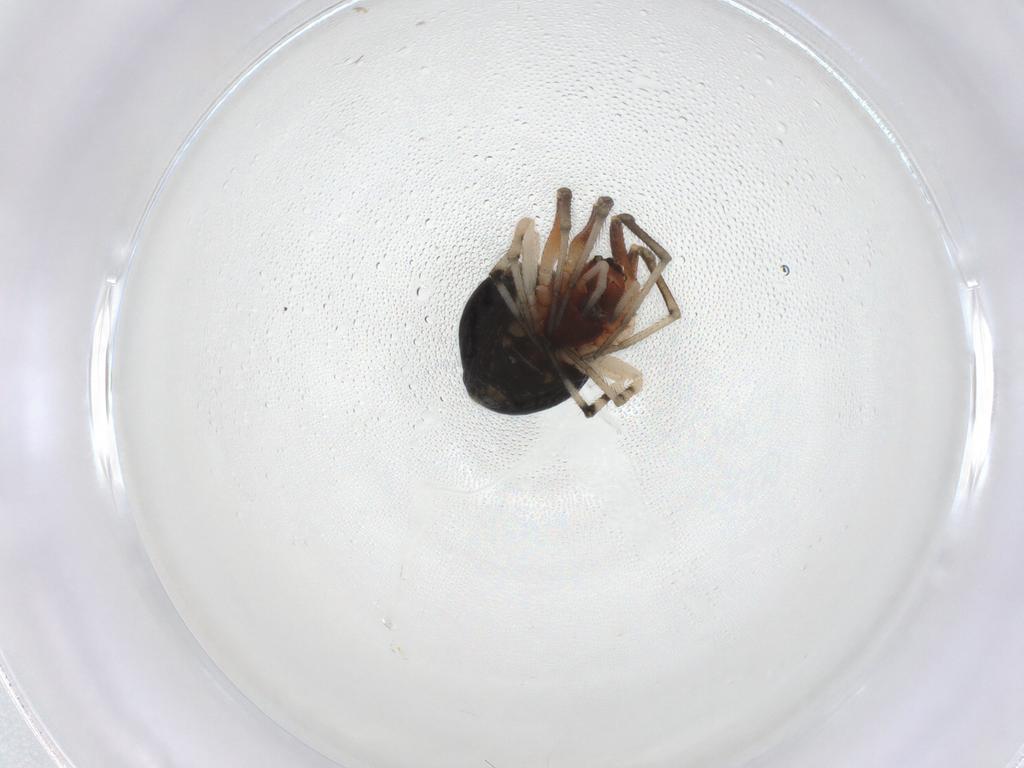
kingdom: Animalia
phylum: Arthropoda
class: Arachnida
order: Araneae
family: Theridiidae
